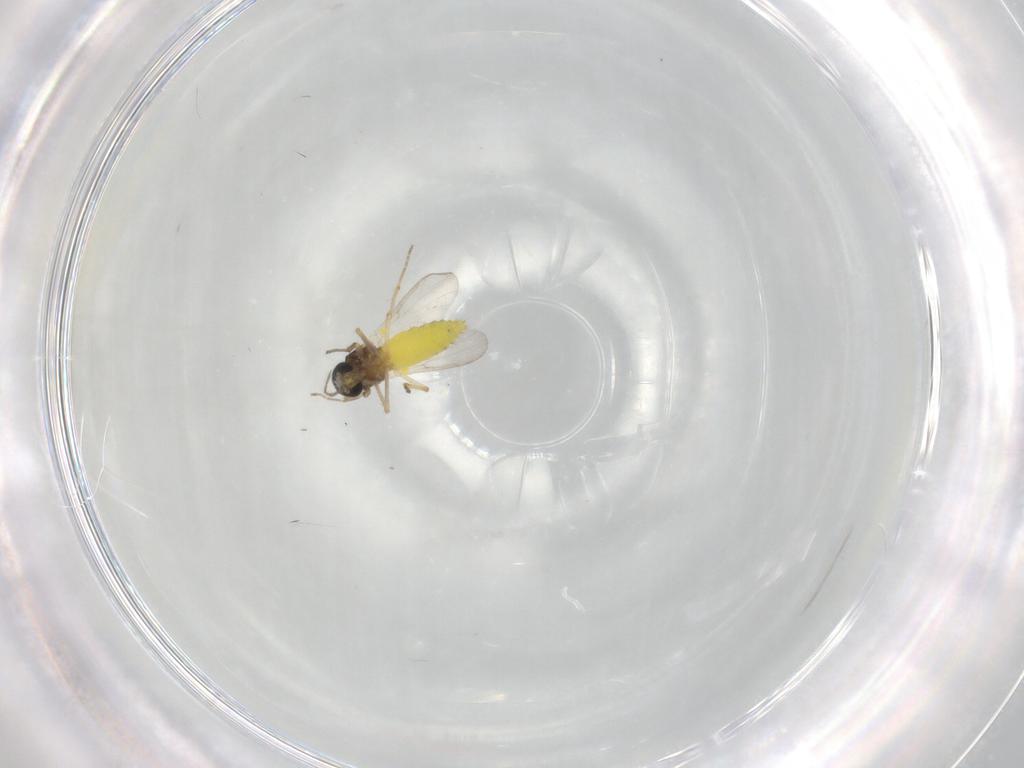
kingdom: Animalia
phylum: Arthropoda
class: Insecta
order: Diptera
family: Ceratopogonidae
